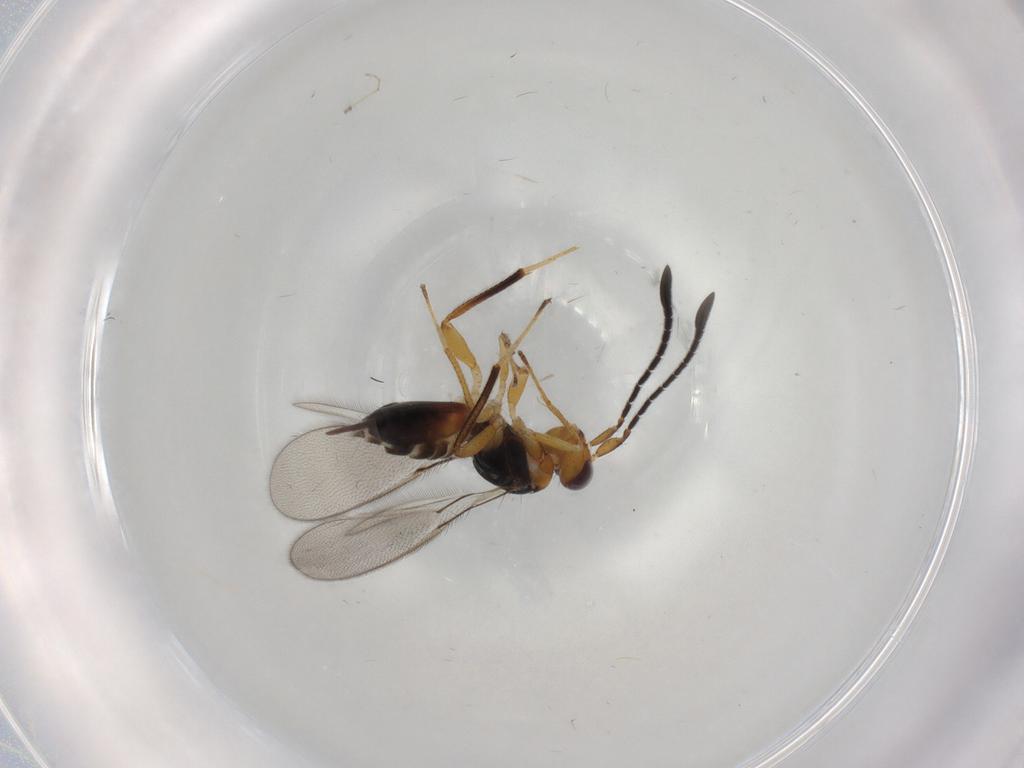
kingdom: Animalia
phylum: Arthropoda
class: Insecta
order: Hymenoptera
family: Mymaridae
